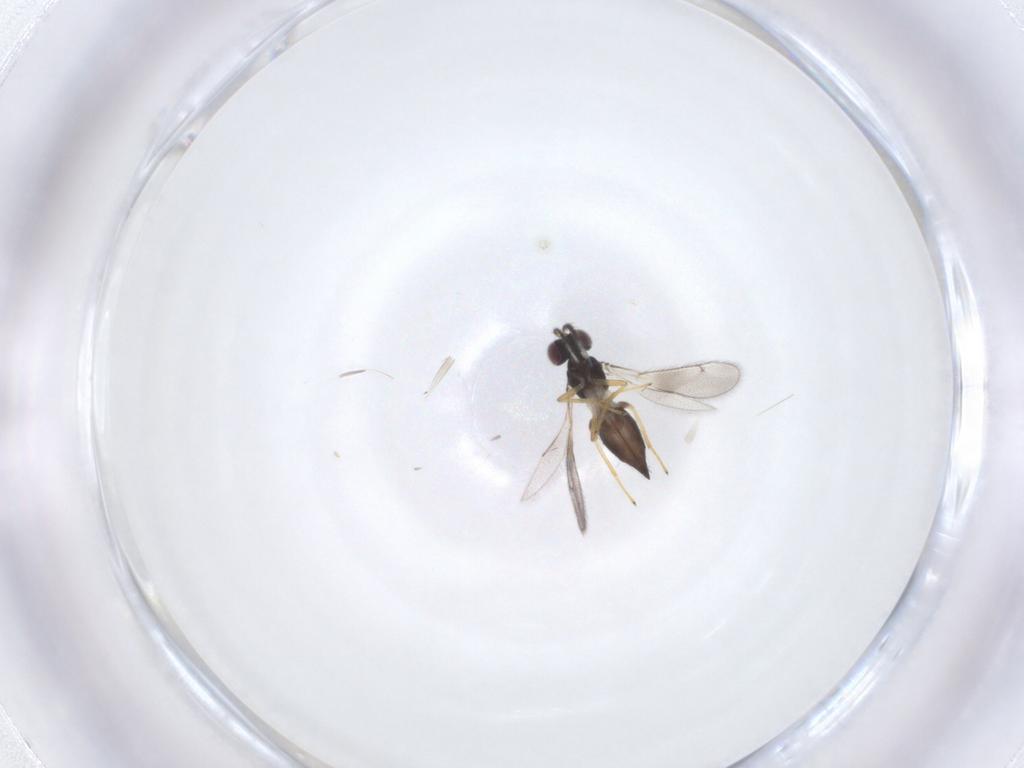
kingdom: Animalia
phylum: Arthropoda
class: Insecta
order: Hymenoptera
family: Eulophidae
